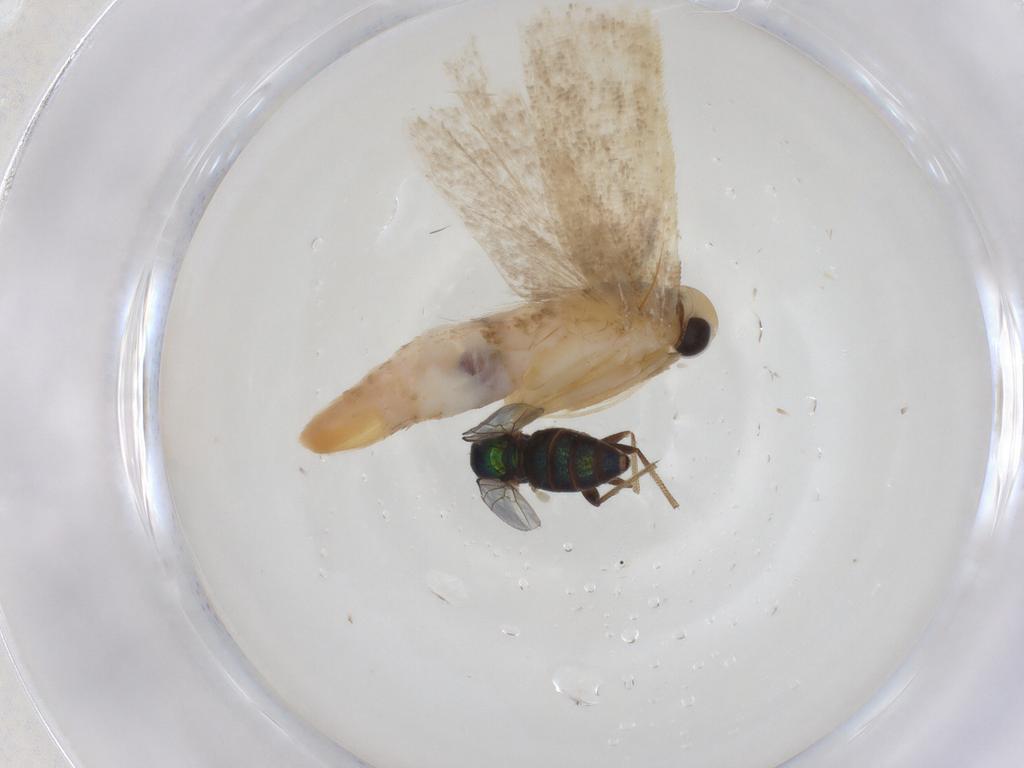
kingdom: Animalia
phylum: Arthropoda
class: Insecta
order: Lepidoptera
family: Gelechiidae
